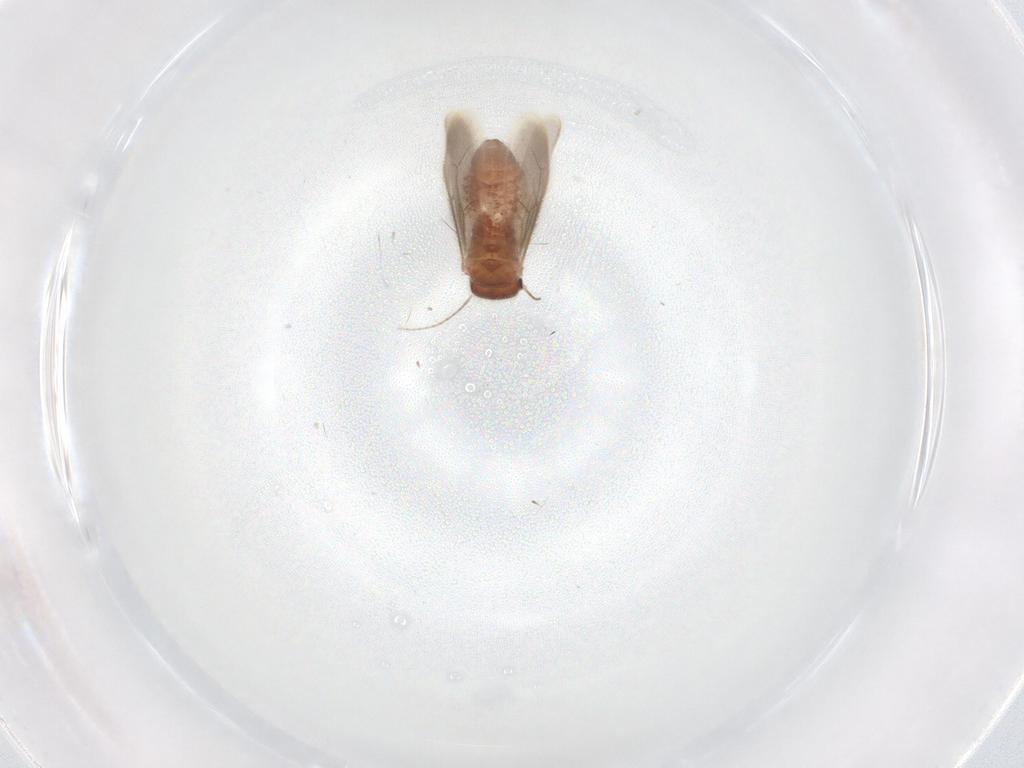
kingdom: Animalia
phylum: Arthropoda
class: Insecta
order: Psocodea
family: Archipsocidae
